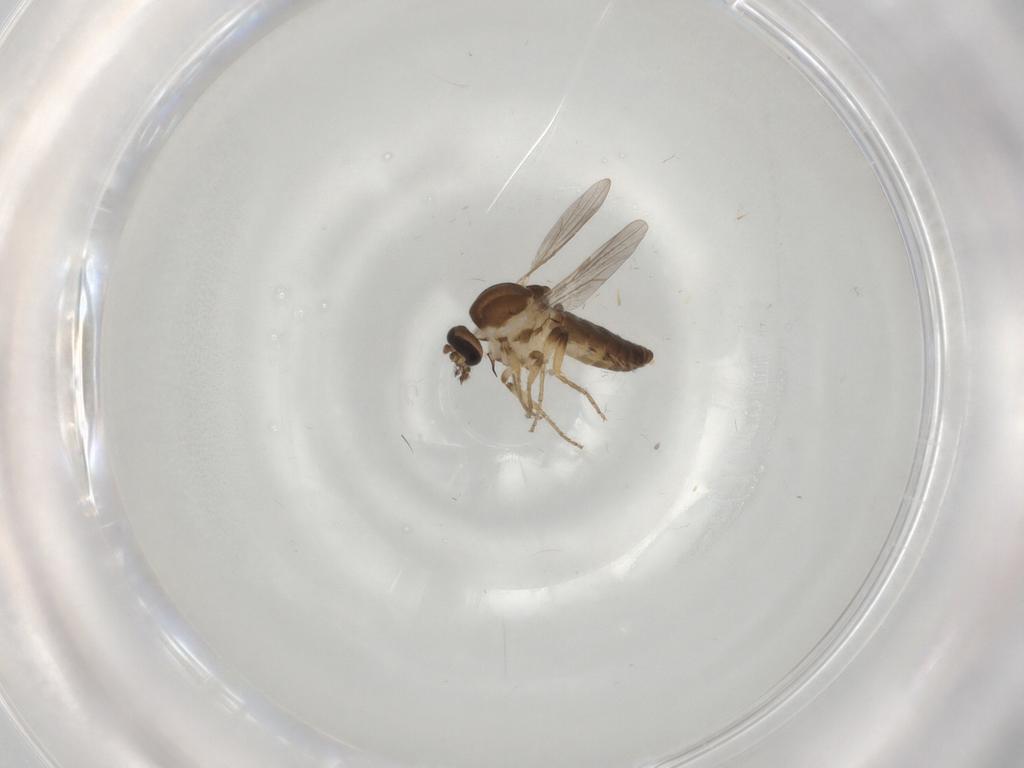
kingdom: Animalia
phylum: Arthropoda
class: Insecta
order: Diptera
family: Ceratopogonidae
